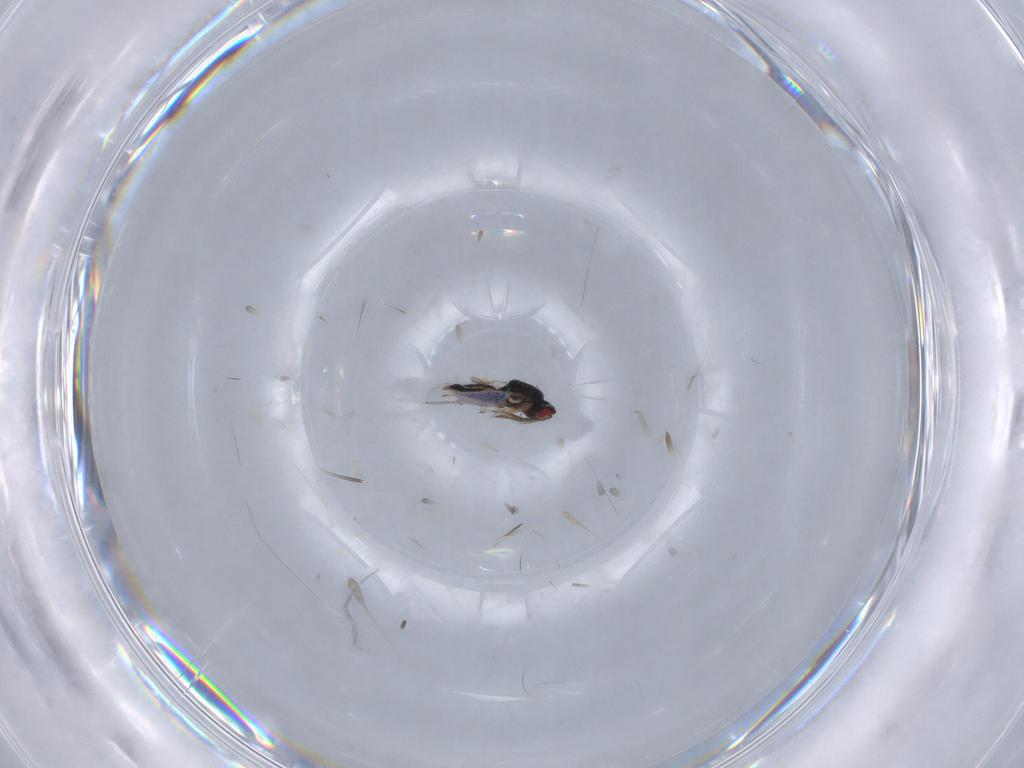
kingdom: Animalia
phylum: Arthropoda
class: Insecta
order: Hymenoptera
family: Eulophidae
